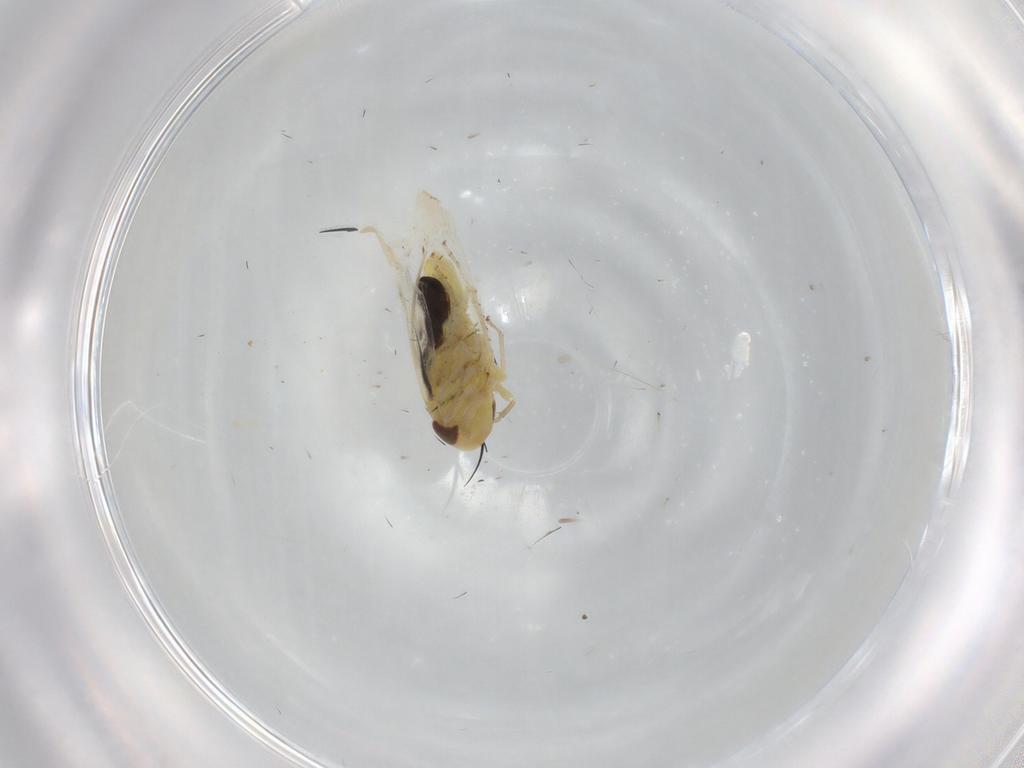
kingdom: Animalia
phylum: Arthropoda
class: Insecta
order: Hemiptera
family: Cicadellidae
